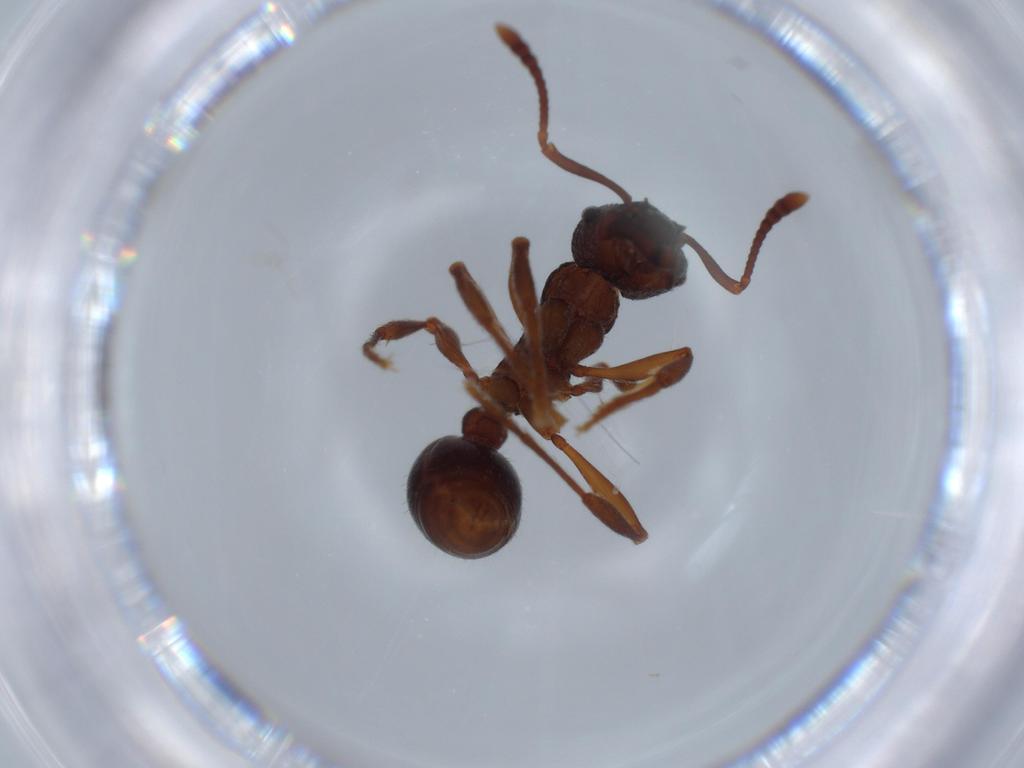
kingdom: Animalia
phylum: Arthropoda
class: Insecta
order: Hymenoptera
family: Formicidae
